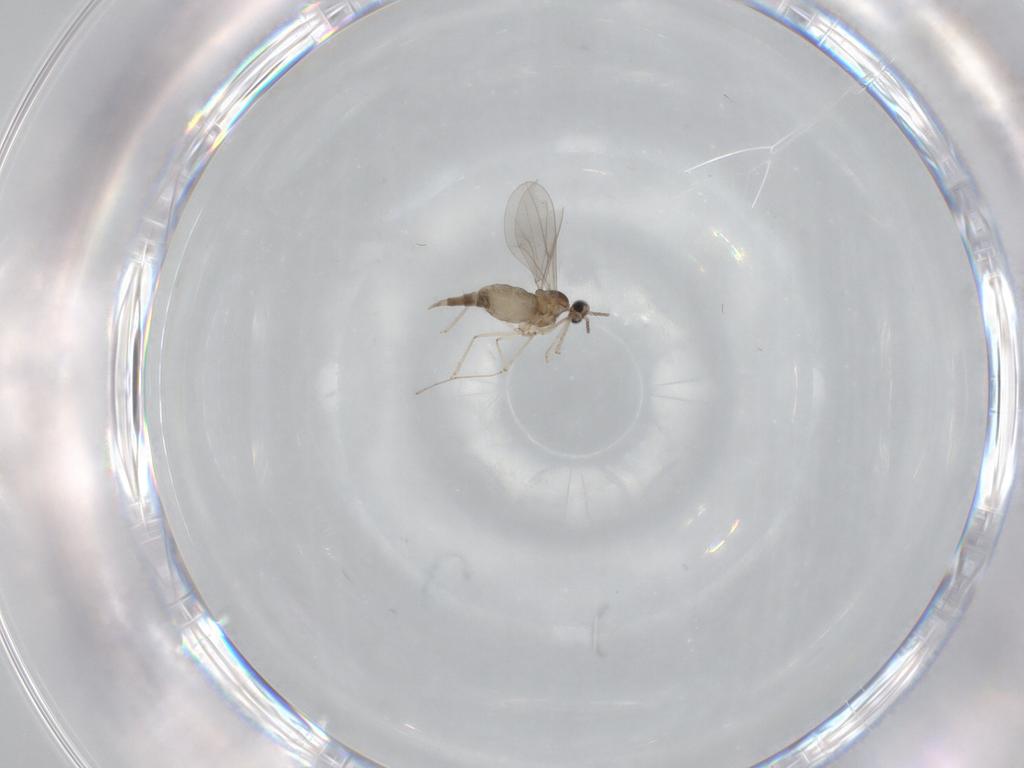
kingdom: Animalia
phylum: Arthropoda
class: Insecta
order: Diptera
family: Cecidomyiidae
